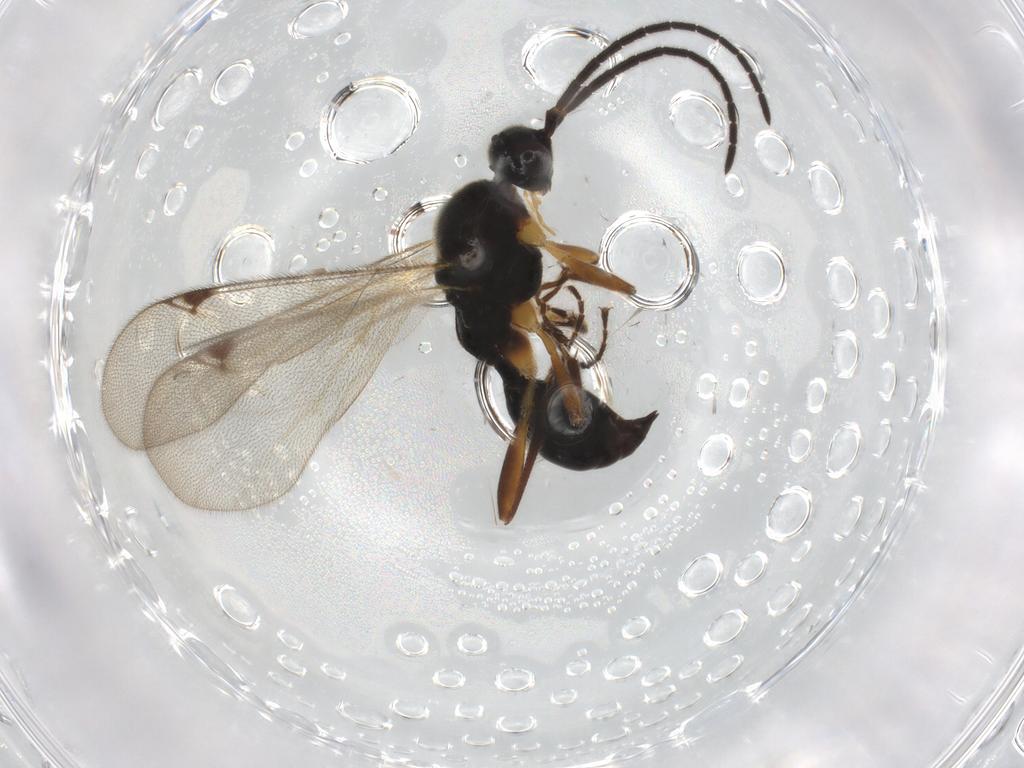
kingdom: Animalia
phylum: Arthropoda
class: Insecta
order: Hymenoptera
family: Proctotrupidae
